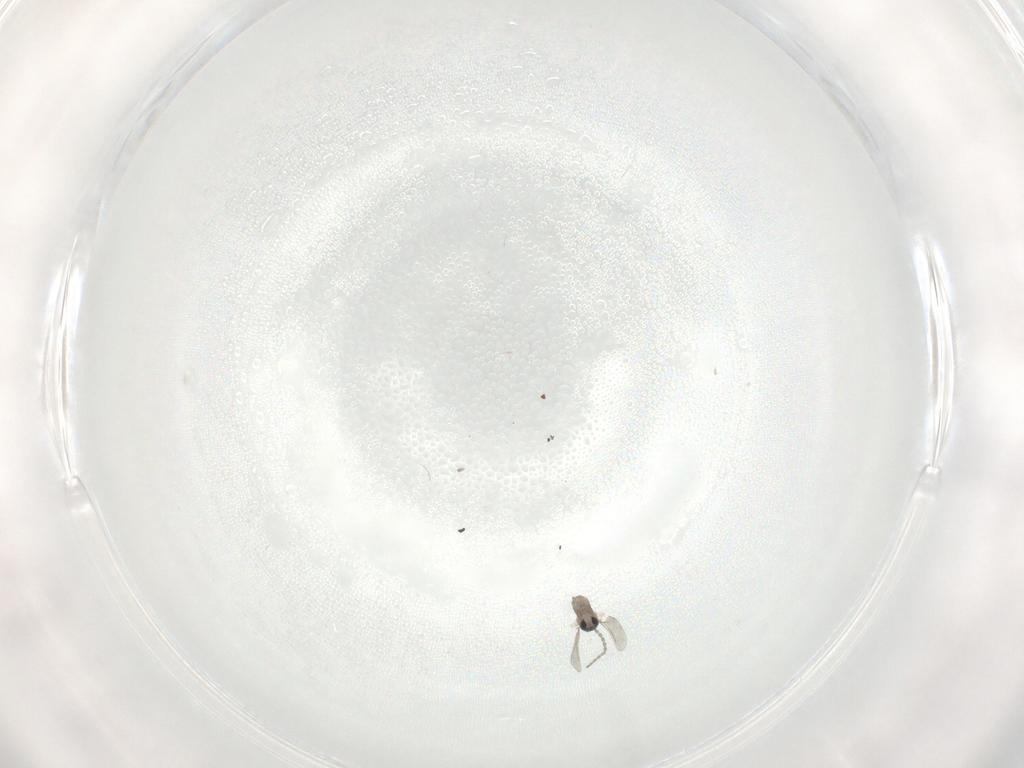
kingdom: Animalia
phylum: Arthropoda
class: Insecta
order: Diptera
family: Cecidomyiidae
